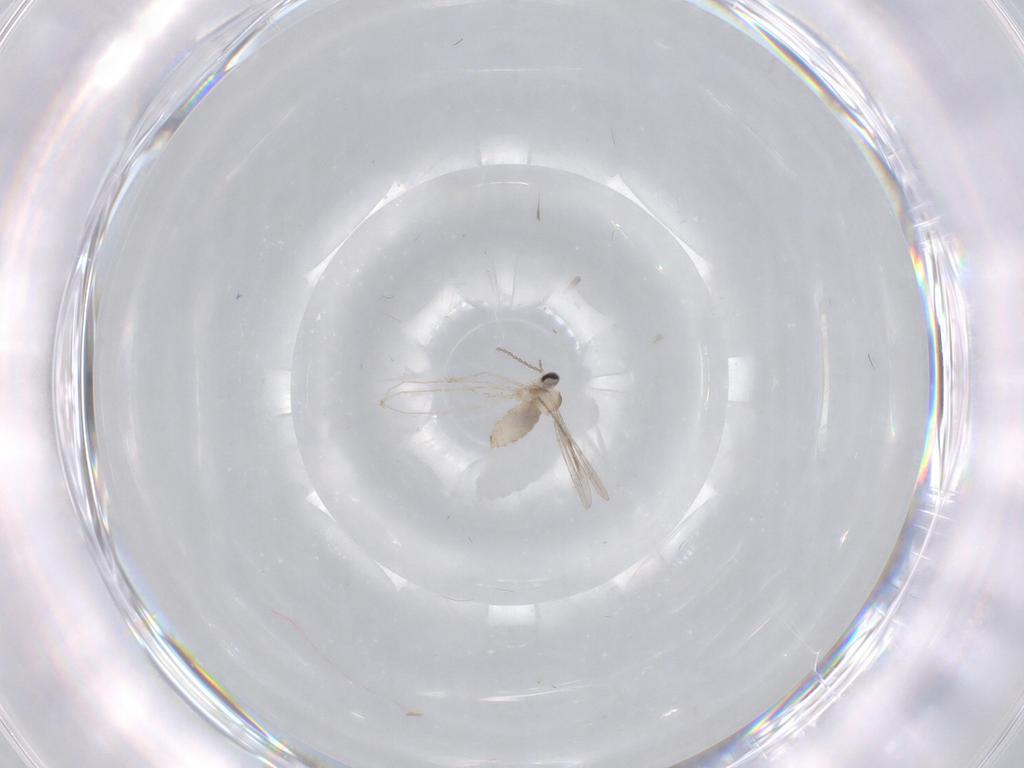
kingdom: Animalia
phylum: Arthropoda
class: Insecta
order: Diptera
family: Cecidomyiidae
